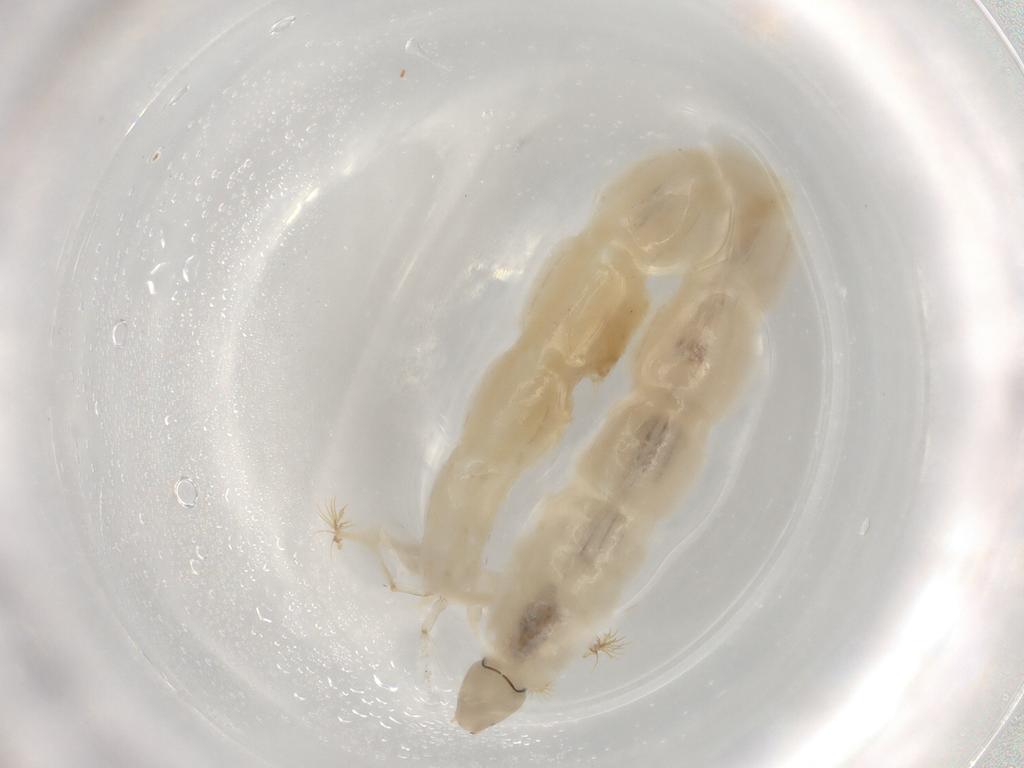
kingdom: Animalia
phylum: Arthropoda
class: Insecta
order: Diptera
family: Chironomidae
